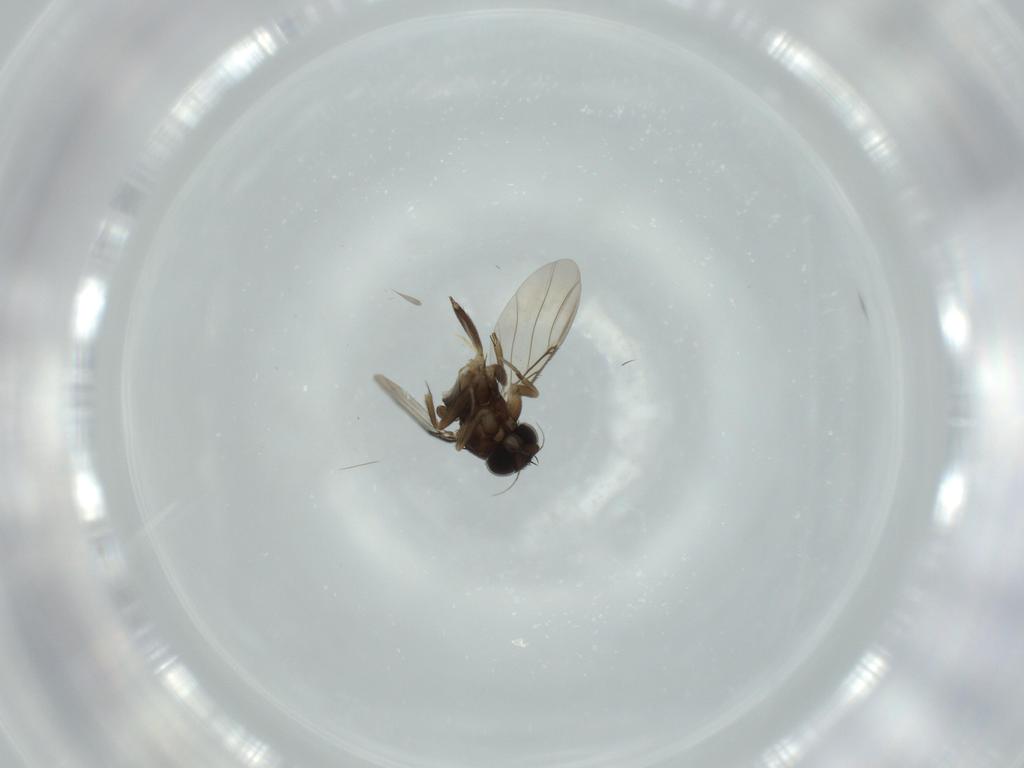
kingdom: Animalia
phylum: Arthropoda
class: Insecta
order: Diptera
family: Phoridae
